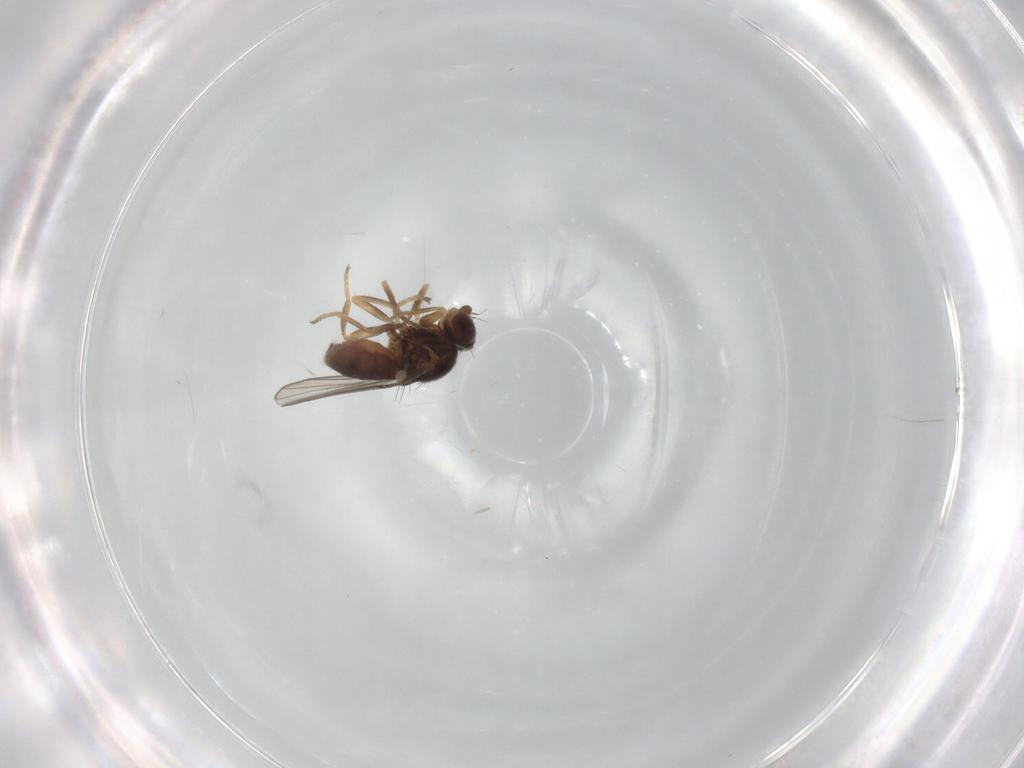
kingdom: Animalia
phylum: Arthropoda
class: Insecta
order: Diptera
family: Chloropidae
